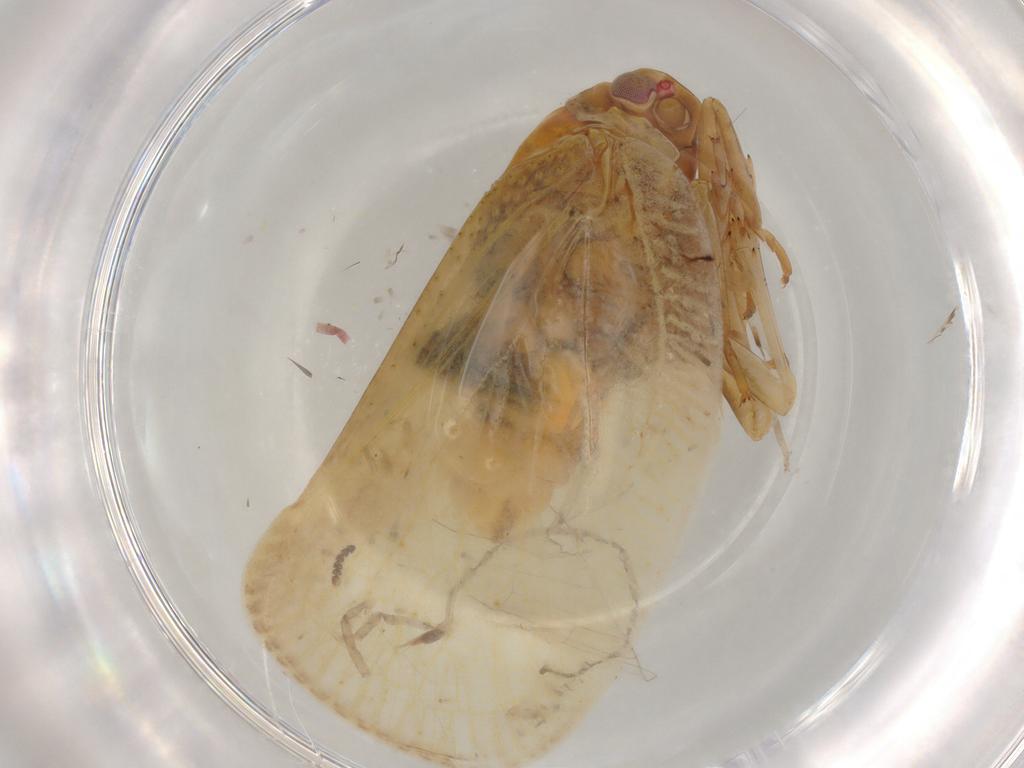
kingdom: Animalia
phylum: Arthropoda
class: Insecta
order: Hemiptera
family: Flatidae
